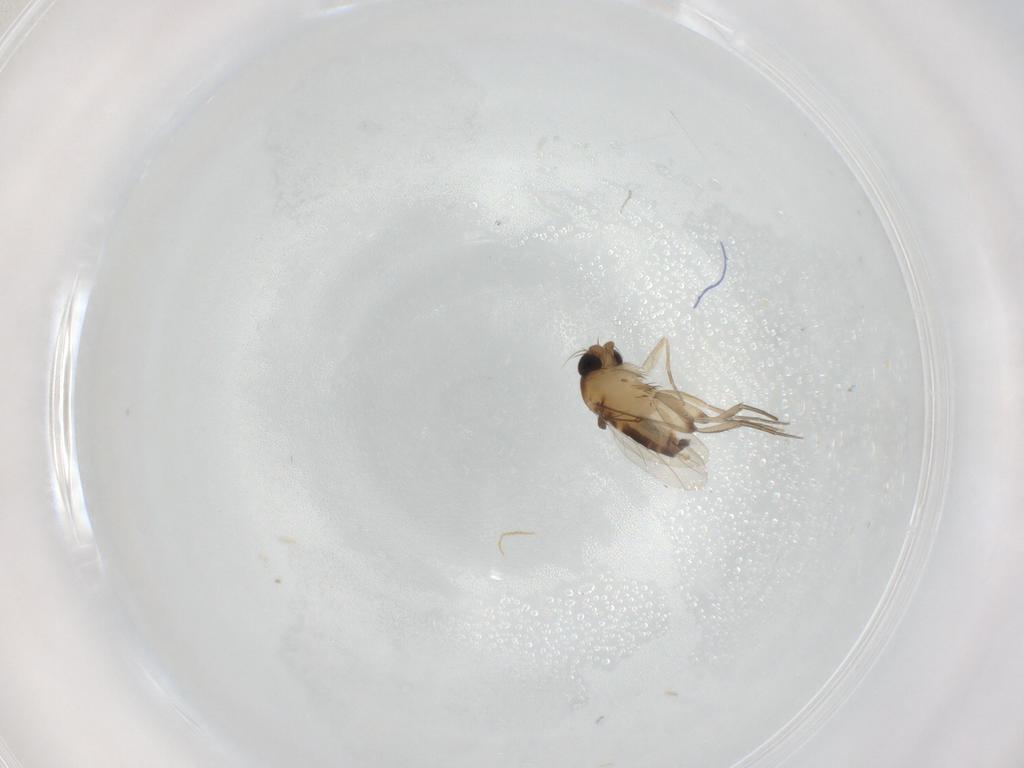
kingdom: Animalia
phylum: Arthropoda
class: Insecta
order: Diptera
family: Phoridae
